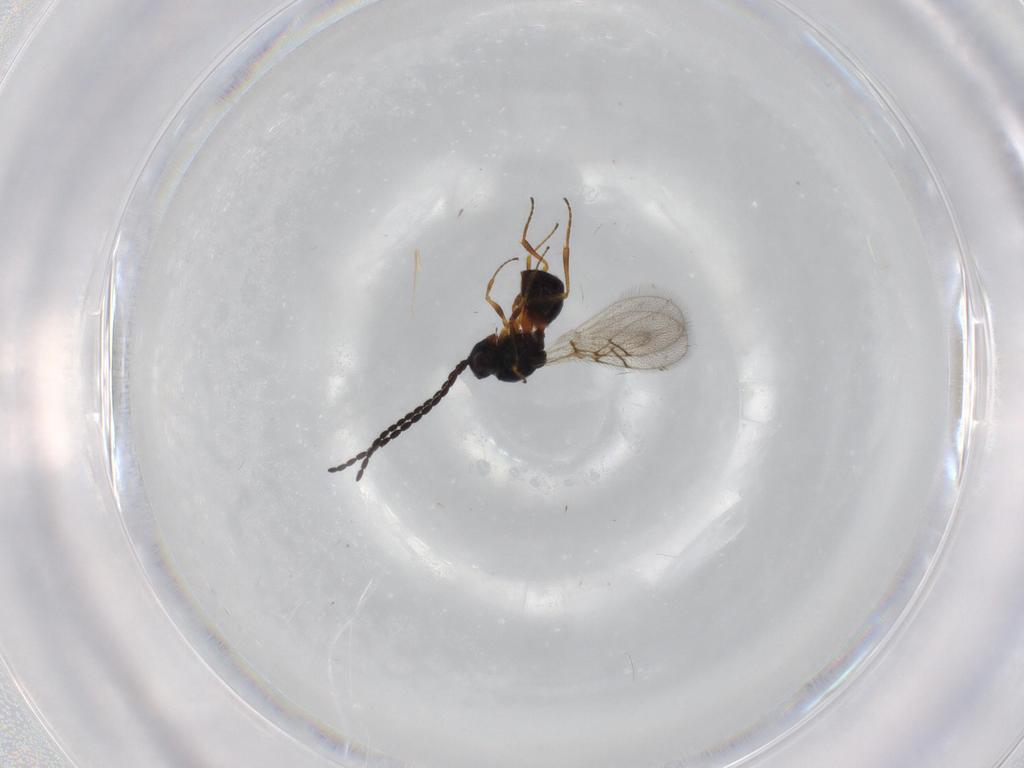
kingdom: Animalia
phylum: Arthropoda
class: Insecta
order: Hymenoptera
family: Figitidae
